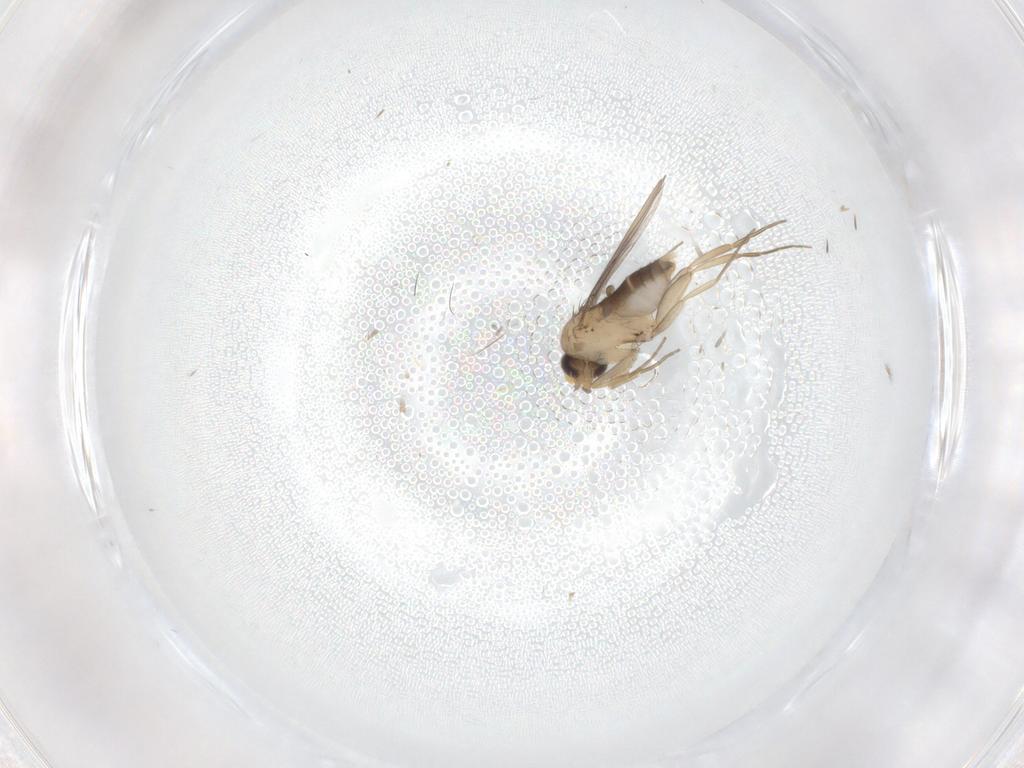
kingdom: Animalia
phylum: Arthropoda
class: Insecta
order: Diptera
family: Phoridae
